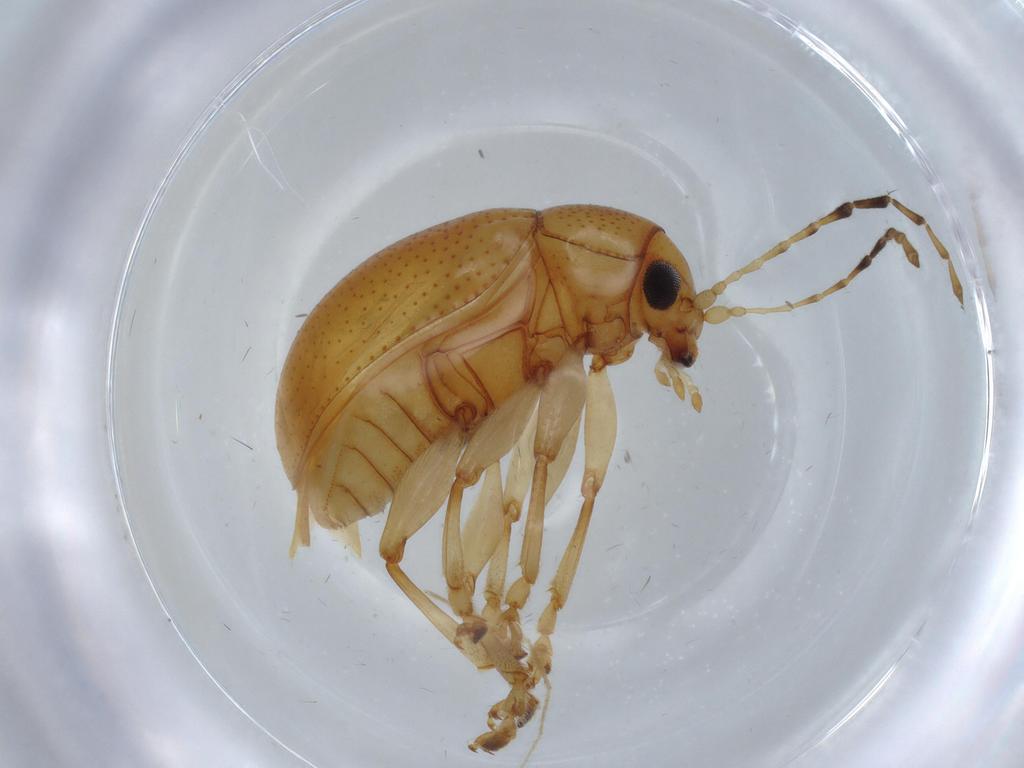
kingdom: Animalia
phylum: Arthropoda
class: Insecta
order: Coleoptera
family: Chrysomelidae
